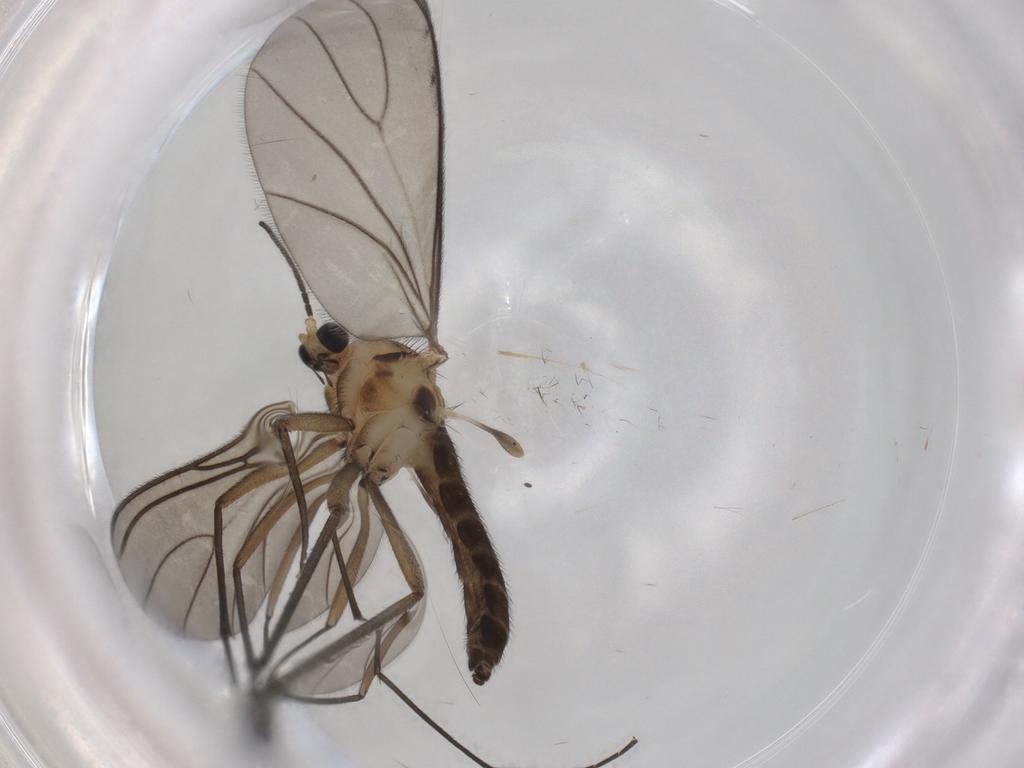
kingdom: Animalia
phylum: Arthropoda
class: Insecta
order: Diptera
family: Sciaridae
